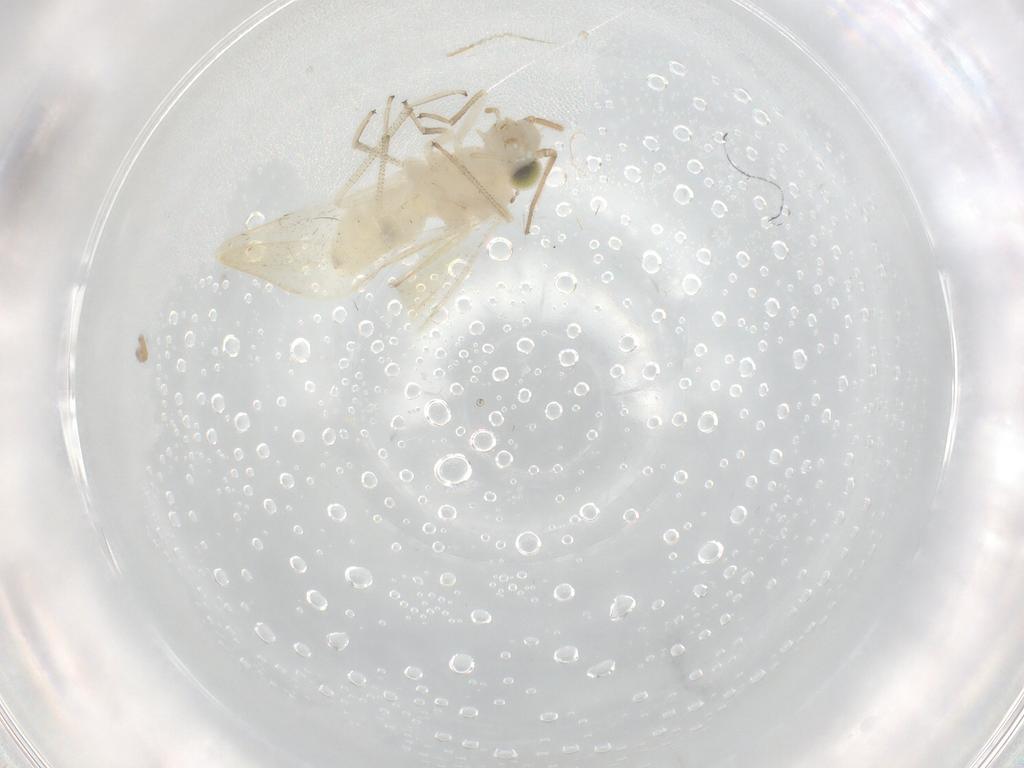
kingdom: Animalia
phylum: Arthropoda
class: Insecta
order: Psocodea
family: Caeciliusidae
